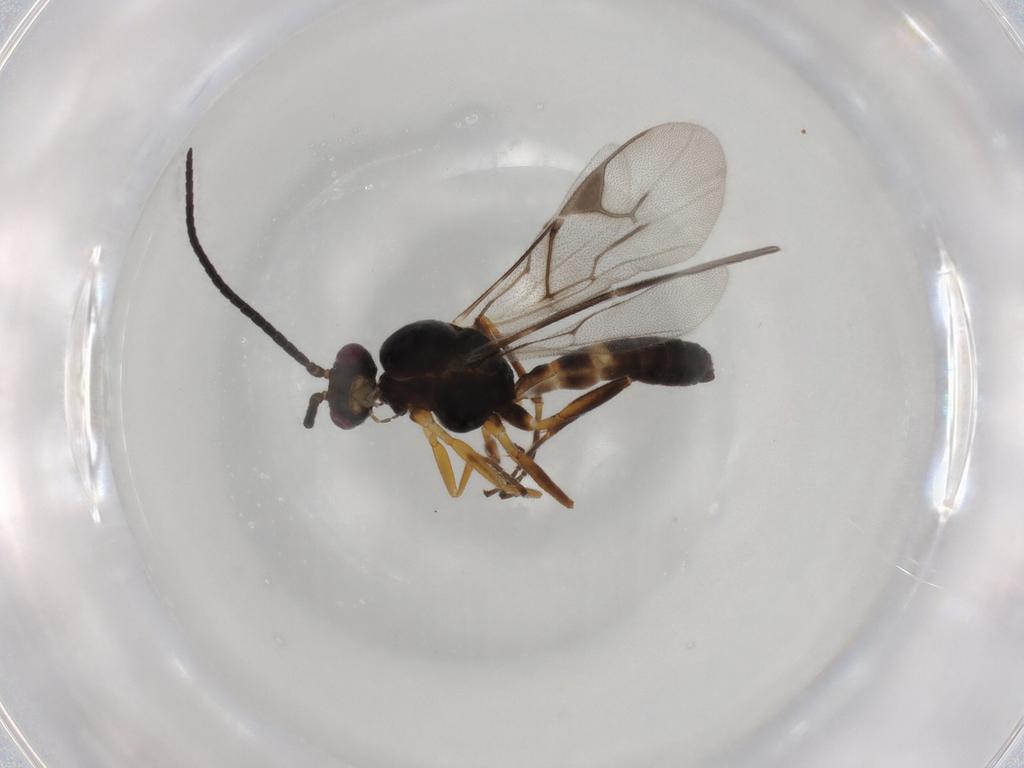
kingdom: Animalia
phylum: Arthropoda
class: Insecta
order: Hymenoptera
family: Braconidae
